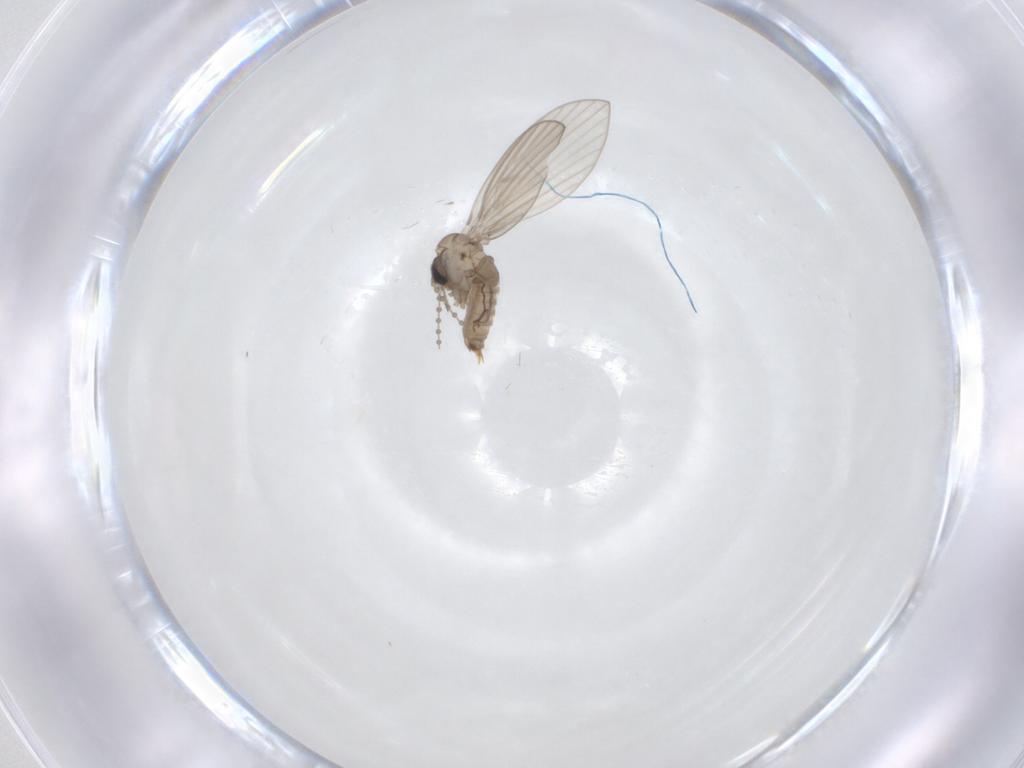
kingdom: Animalia
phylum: Arthropoda
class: Insecta
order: Diptera
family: Psychodidae
